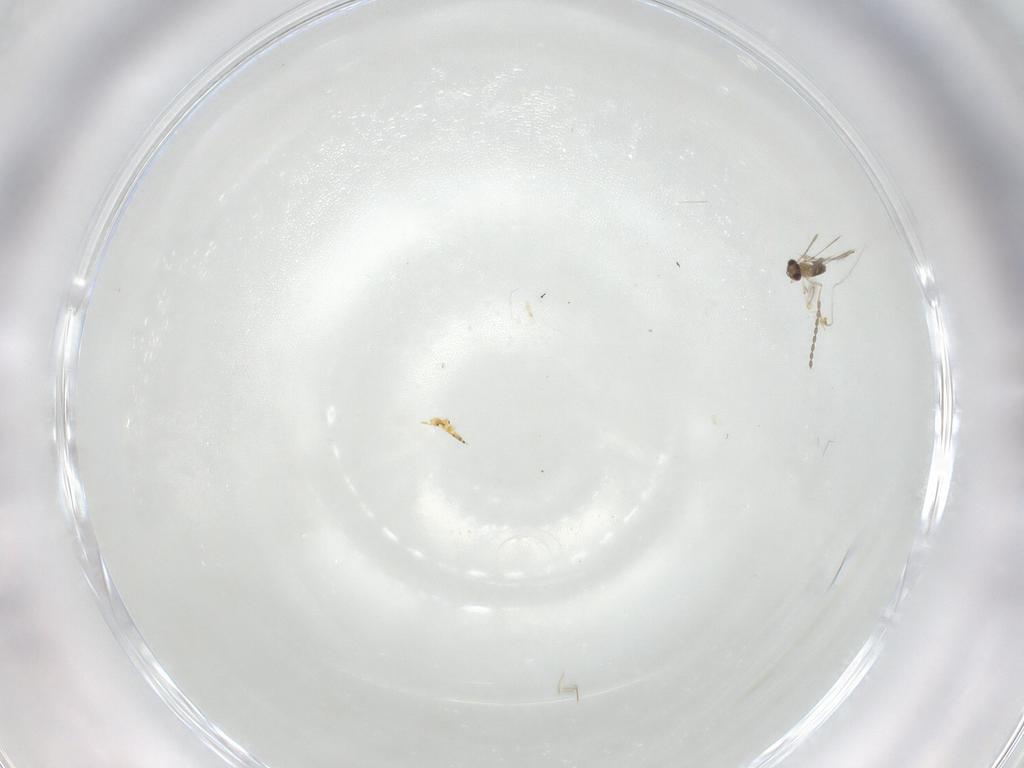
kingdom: Animalia
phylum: Arthropoda
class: Insecta
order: Hymenoptera
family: Mymaridae
